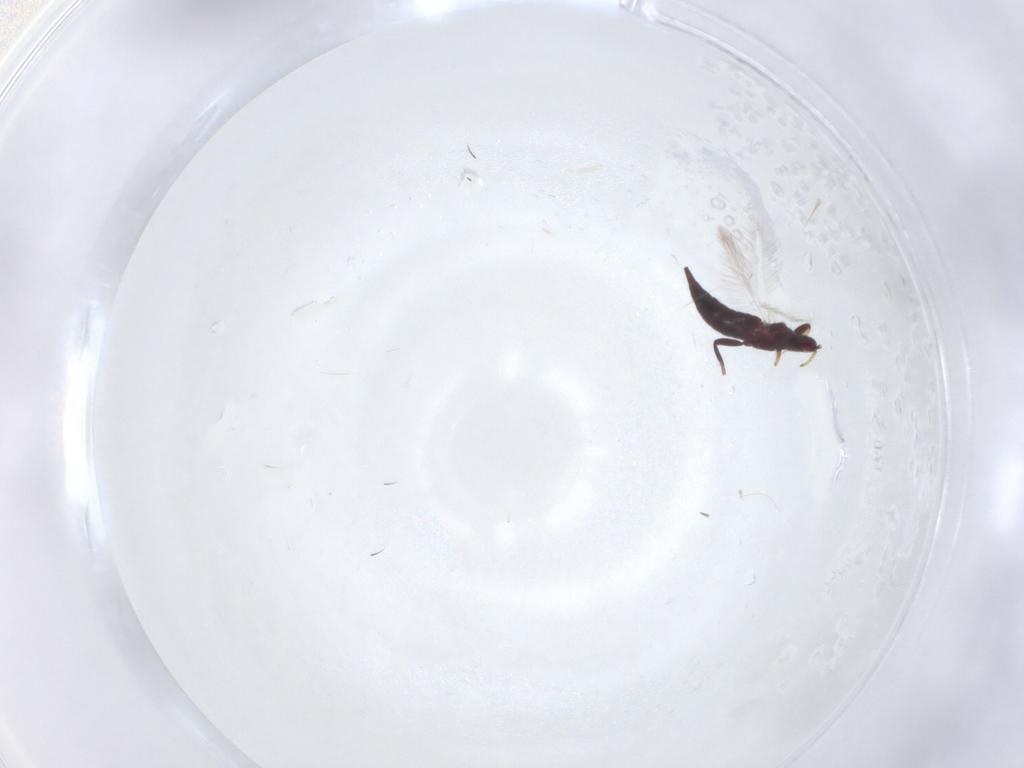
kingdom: Animalia
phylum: Arthropoda
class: Insecta
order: Thysanoptera
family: Phlaeothripidae
